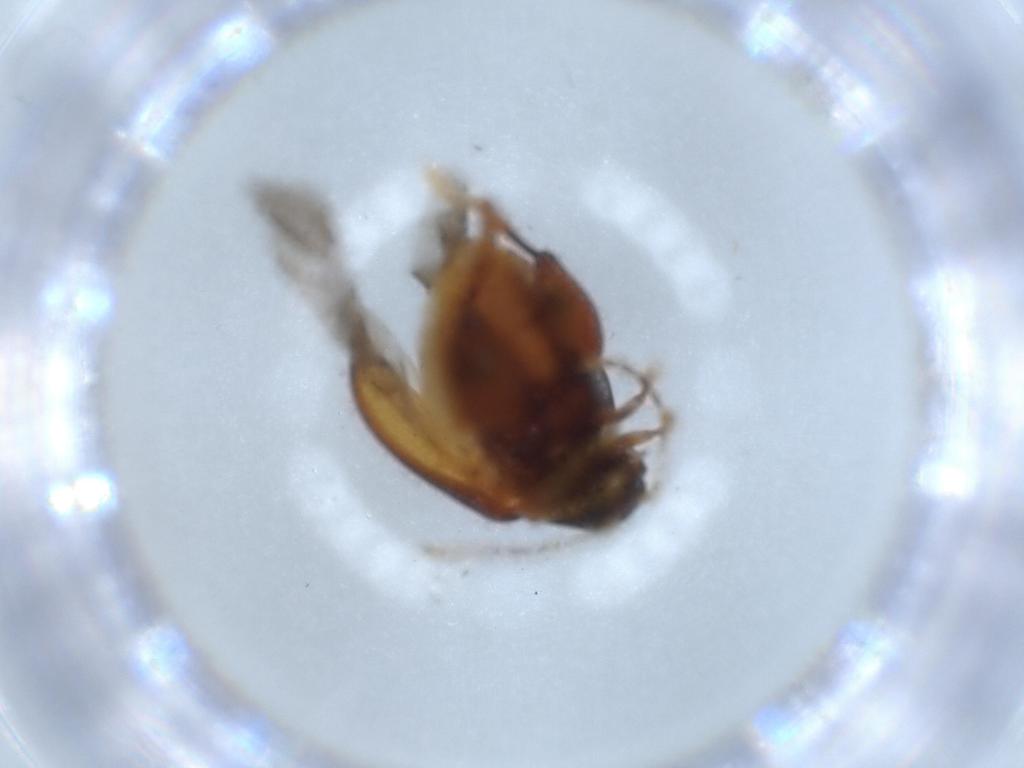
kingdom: Animalia
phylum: Arthropoda
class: Insecta
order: Coleoptera
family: Chrysomelidae
